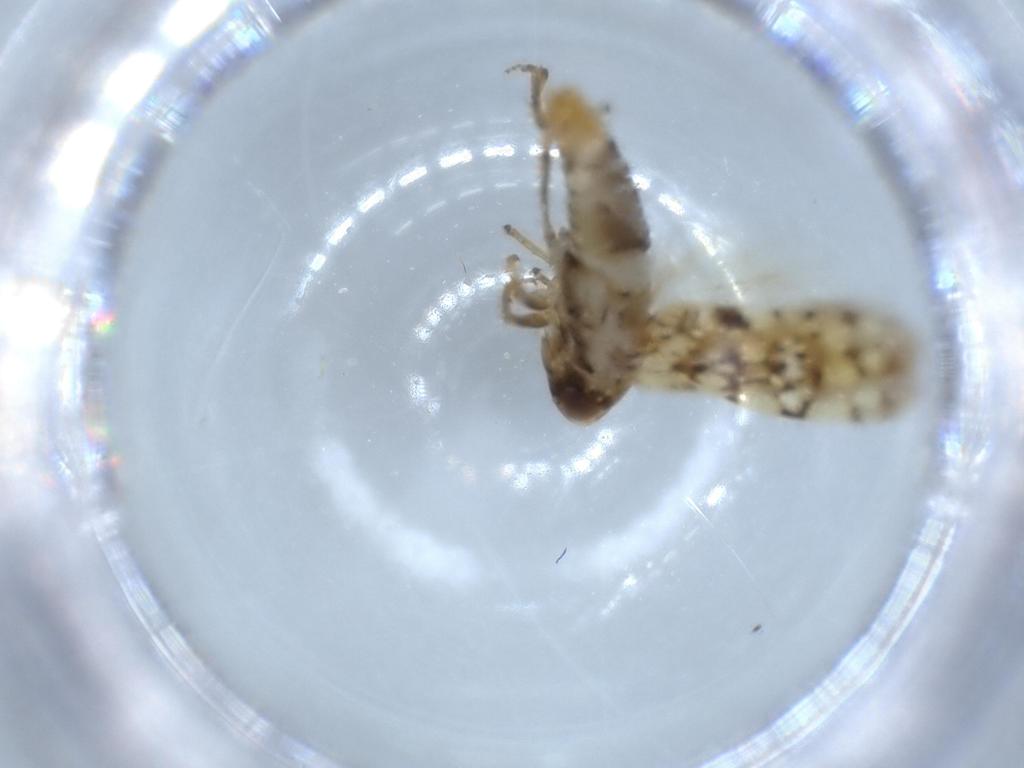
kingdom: Animalia
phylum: Arthropoda
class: Insecta
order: Hemiptera
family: Cicadellidae
